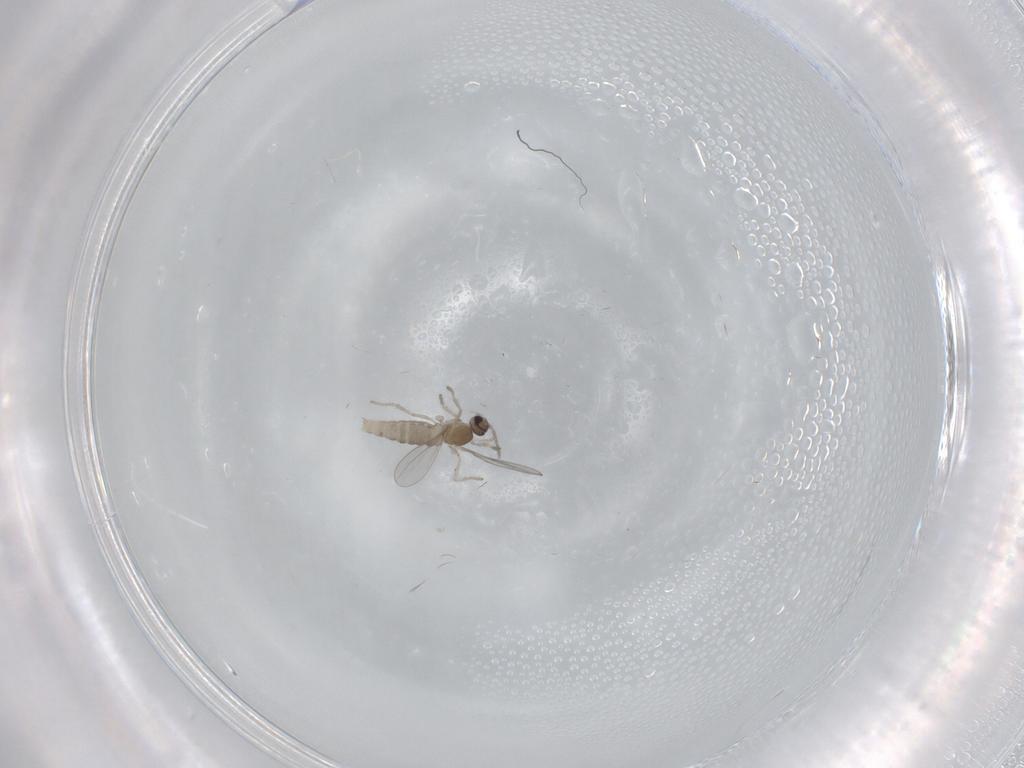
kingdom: Animalia
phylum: Arthropoda
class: Insecta
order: Diptera
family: Cecidomyiidae
